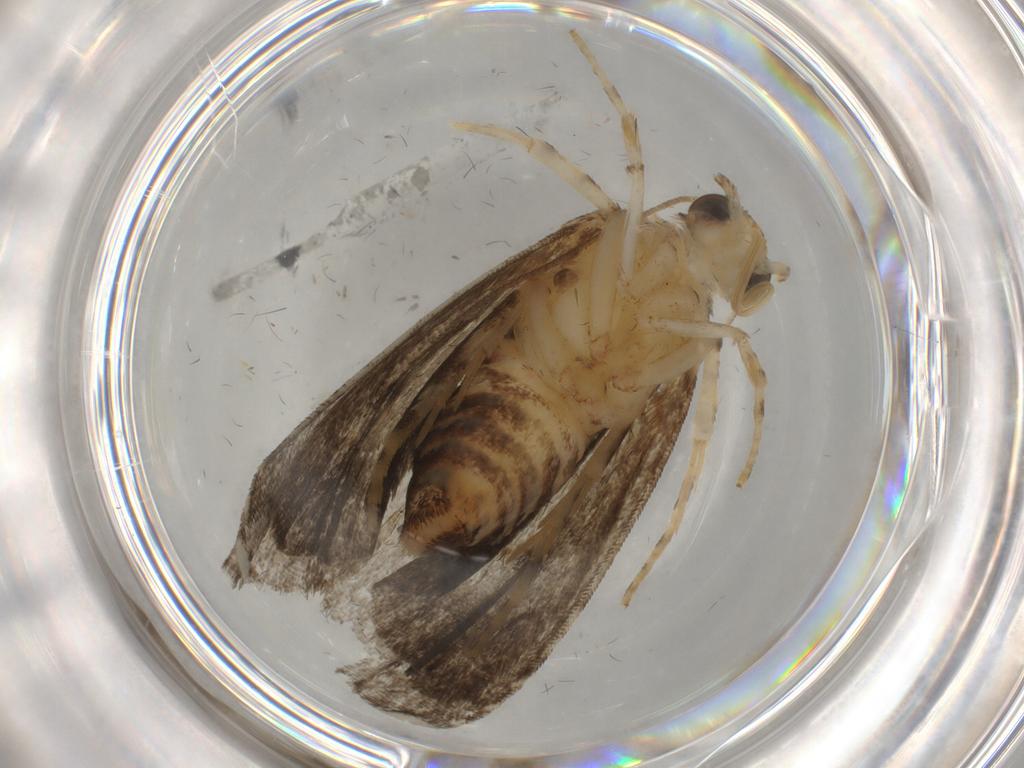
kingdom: Animalia
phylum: Arthropoda
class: Insecta
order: Lepidoptera
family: Immidae
